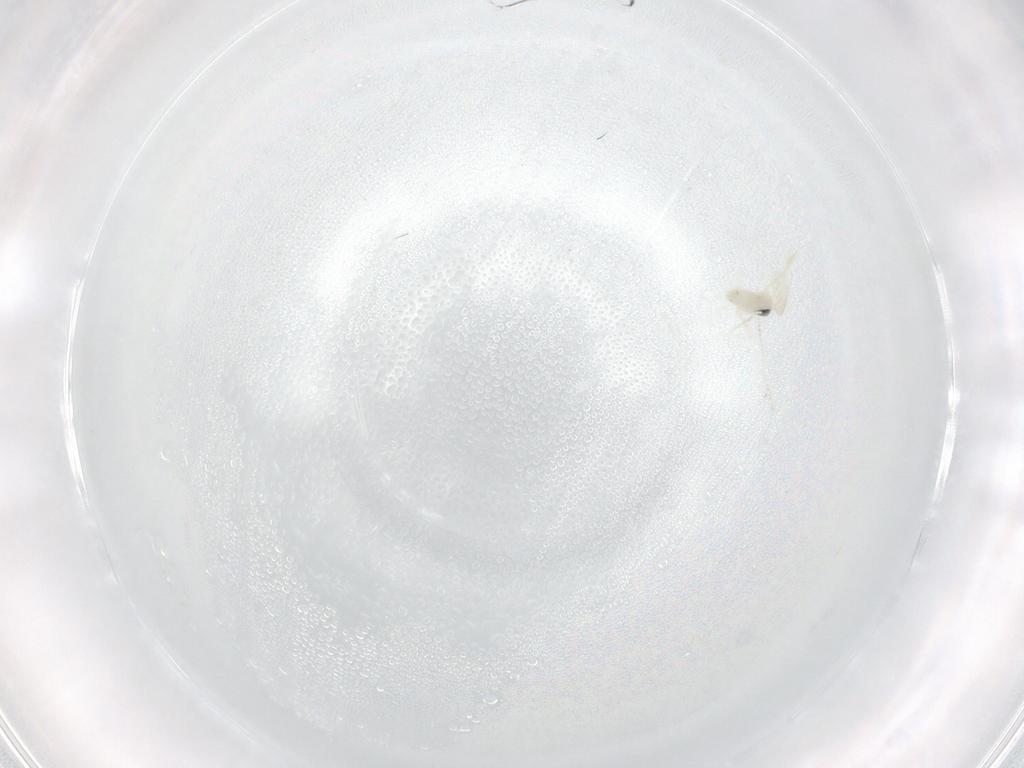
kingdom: Animalia
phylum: Arthropoda
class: Insecta
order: Diptera
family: Cecidomyiidae
